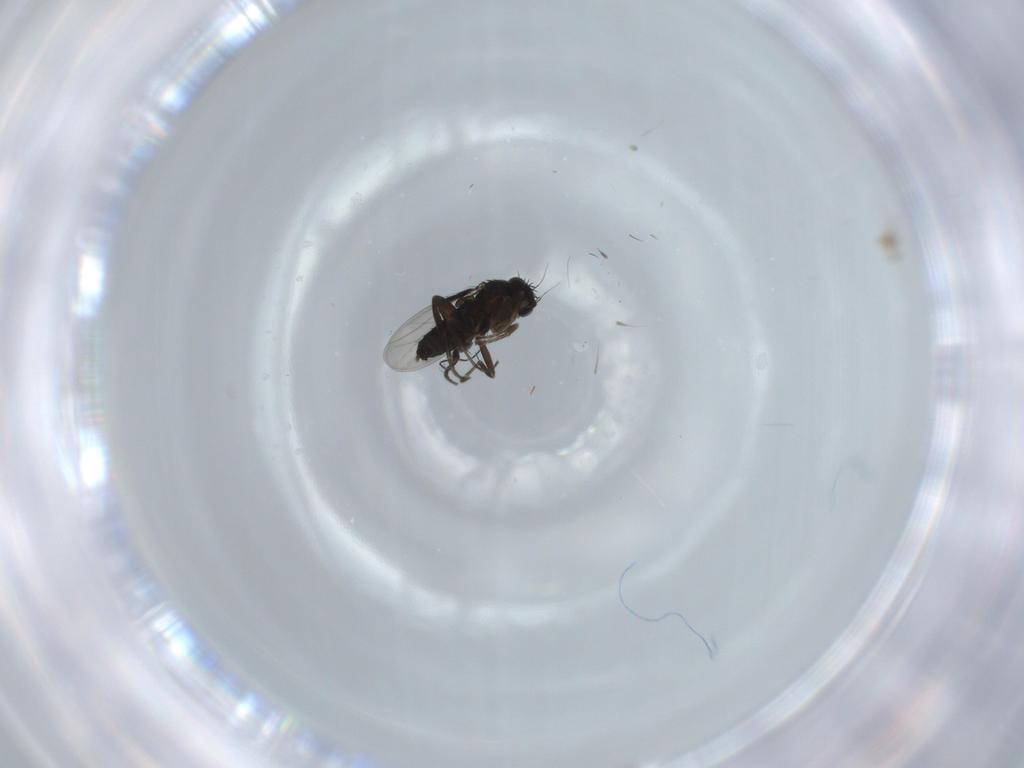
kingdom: Animalia
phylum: Arthropoda
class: Insecta
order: Diptera
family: Phoridae
